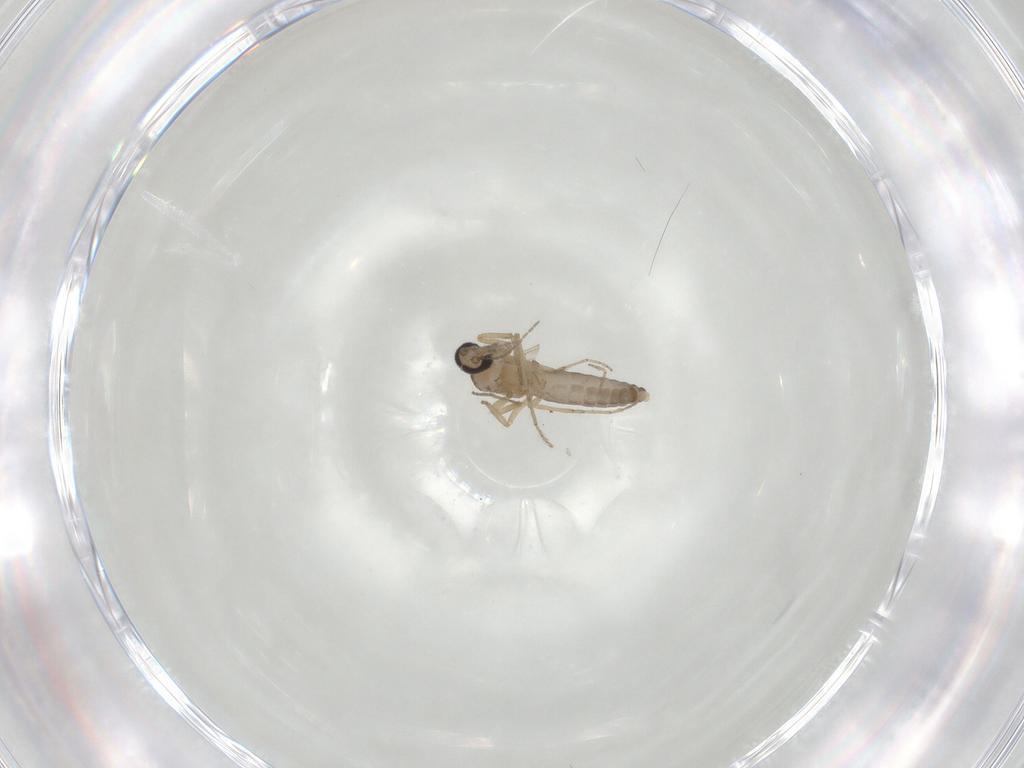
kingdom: Animalia
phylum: Arthropoda
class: Insecta
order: Diptera
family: Ceratopogonidae
